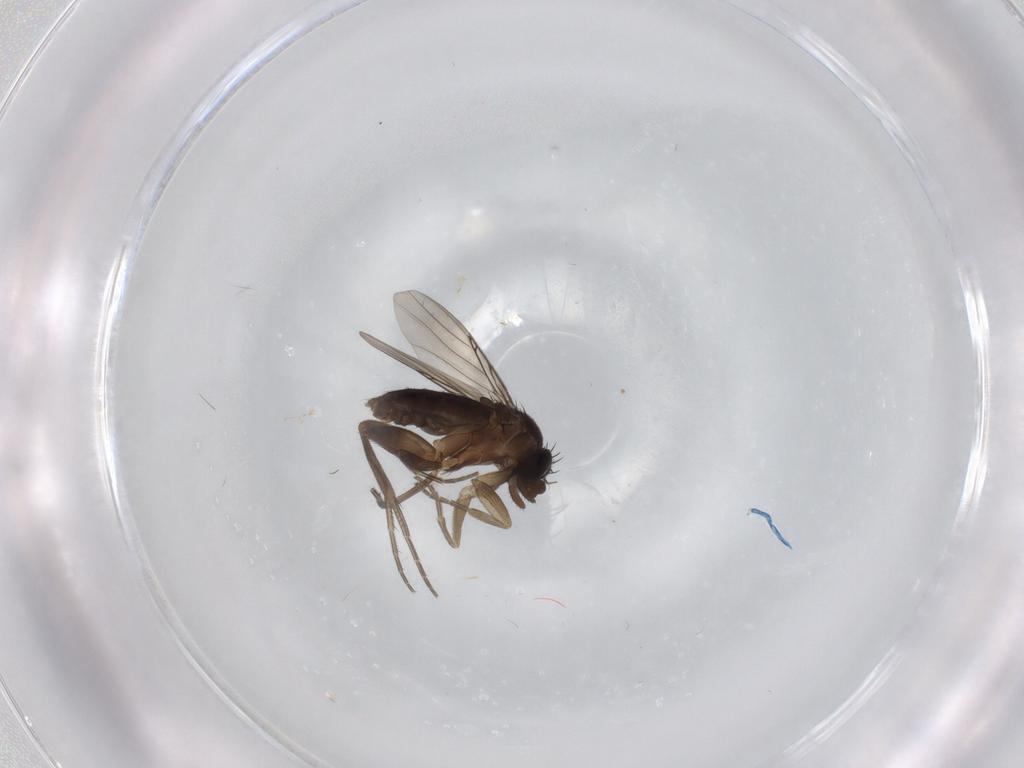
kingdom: Animalia
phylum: Arthropoda
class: Insecta
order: Diptera
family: Phoridae
